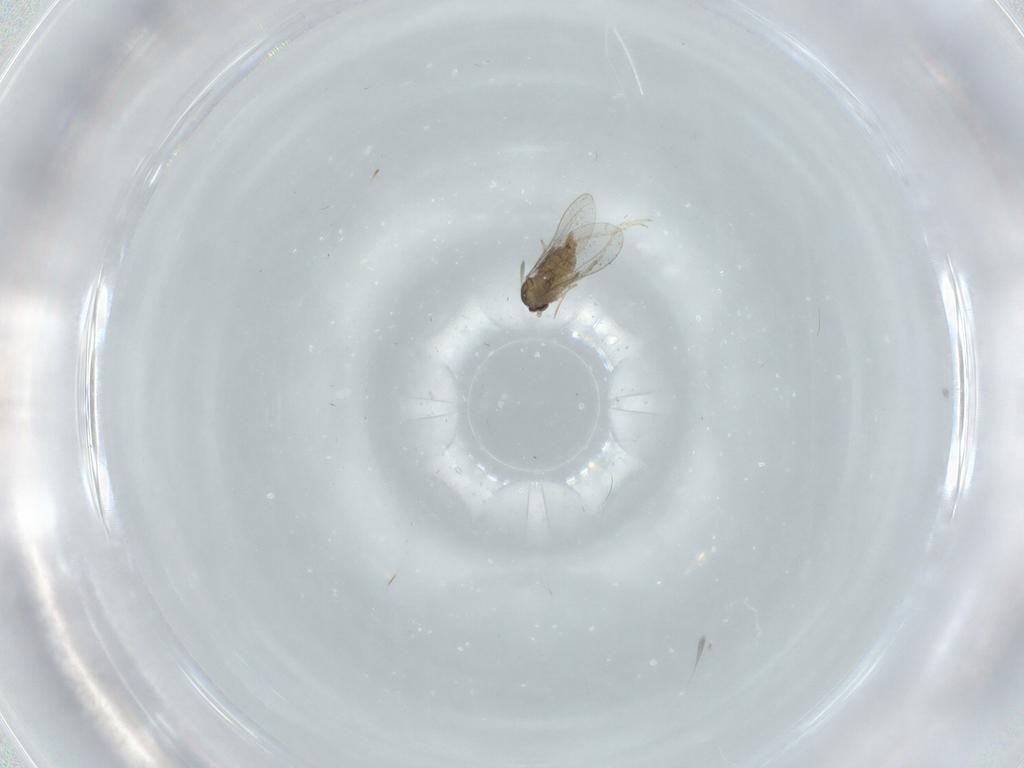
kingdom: Animalia
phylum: Arthropoda
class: Insecta
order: Diptera
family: Cecidomyiidae
